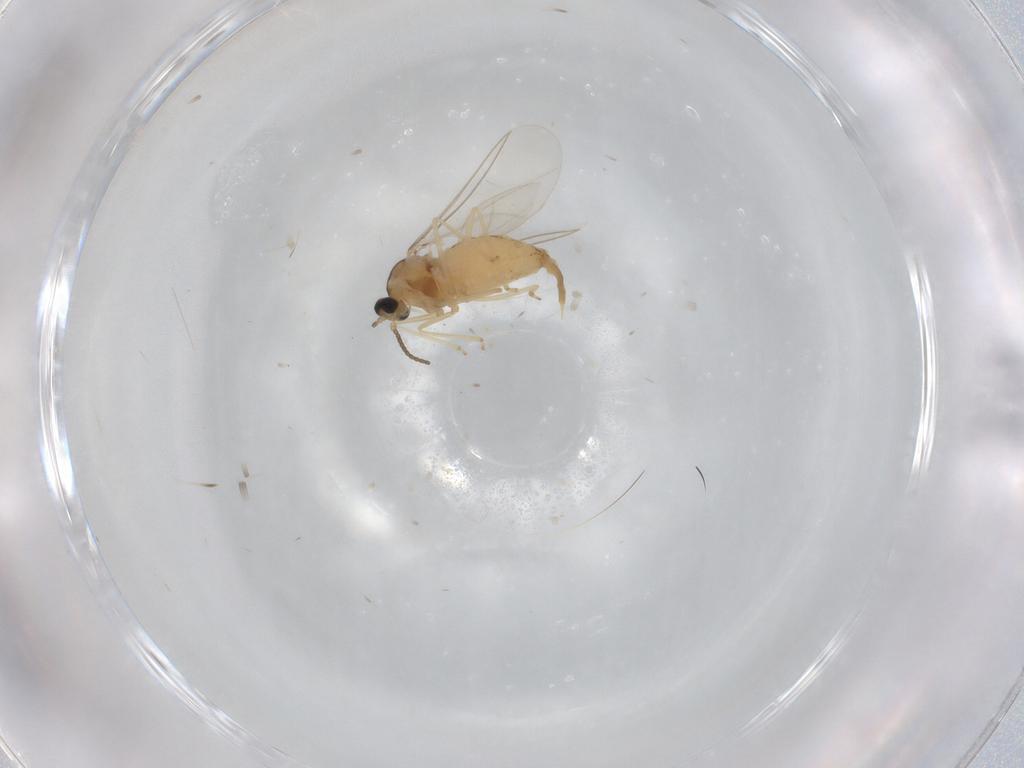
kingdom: Animalia
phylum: Arthropoda
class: Insecta
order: Diptera
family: Cecidomyiidae
